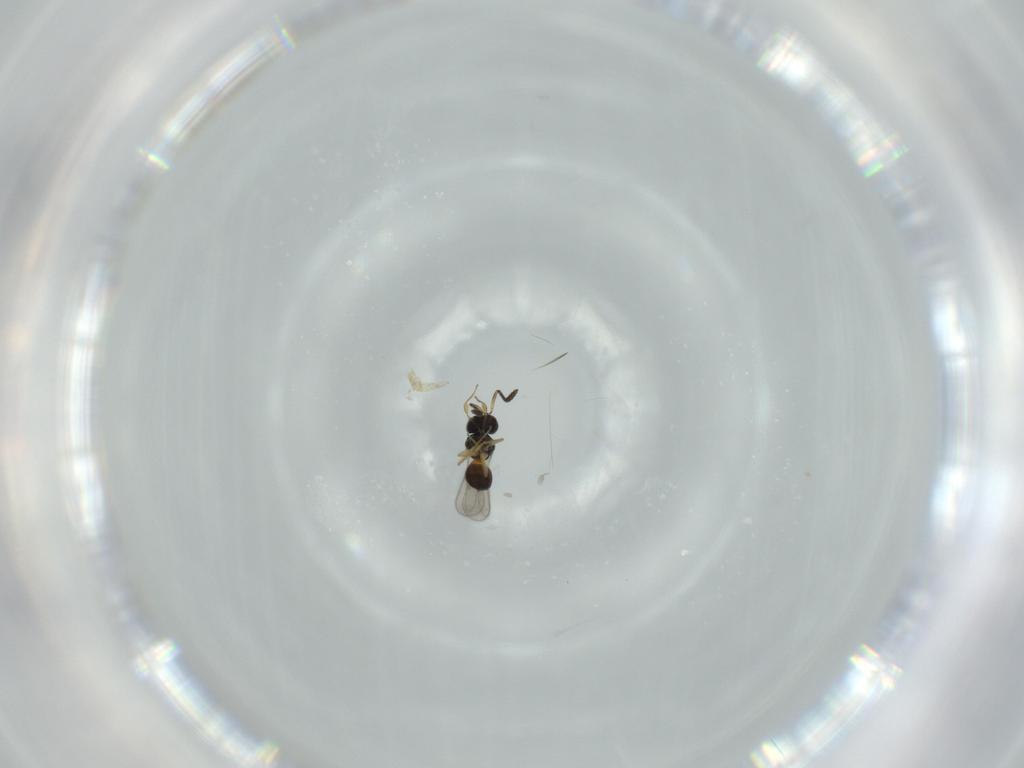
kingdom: Animalia
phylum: Arthropoda
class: Insecta
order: Hymenoptera
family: Scelionidae
